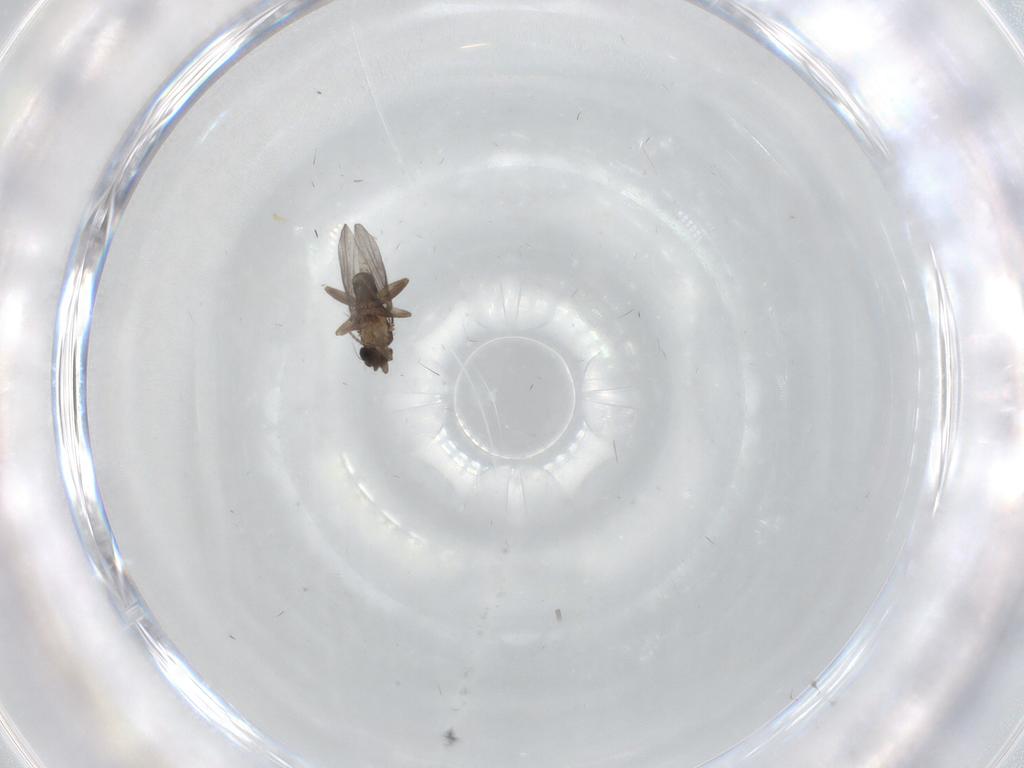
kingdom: Animalia
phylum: Arthropoda
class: Insecta
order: Diptera
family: Phoridae
